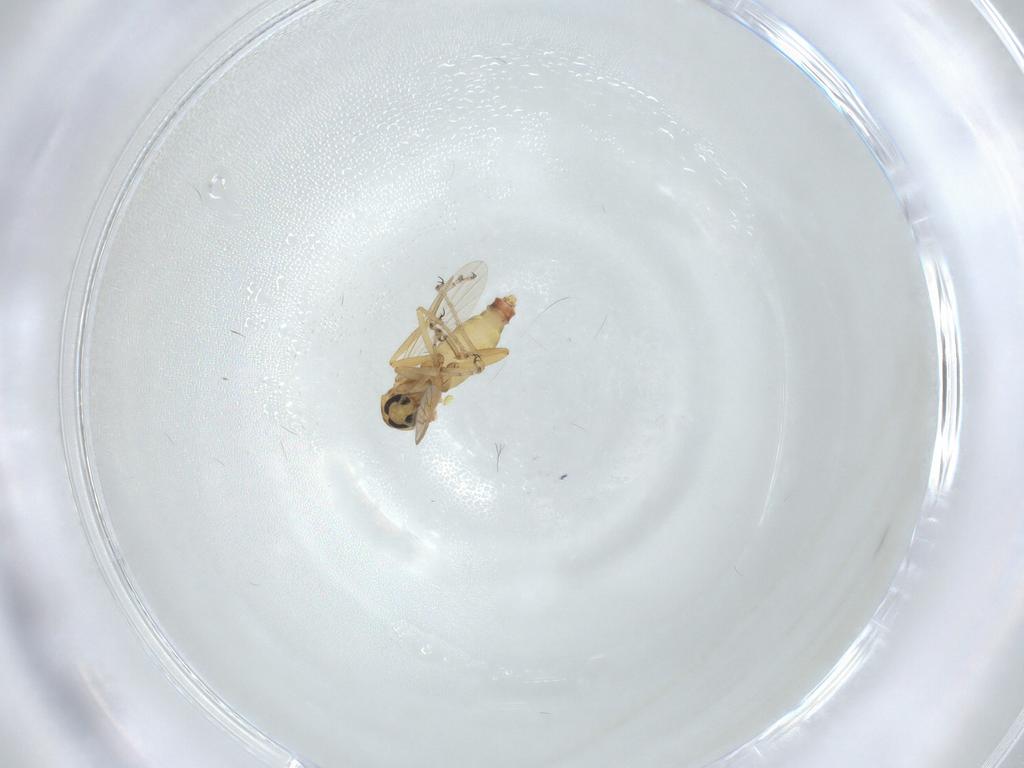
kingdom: Animalia
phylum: Arthropoda
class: Insecta
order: Diptera
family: Ceratopogonidae
